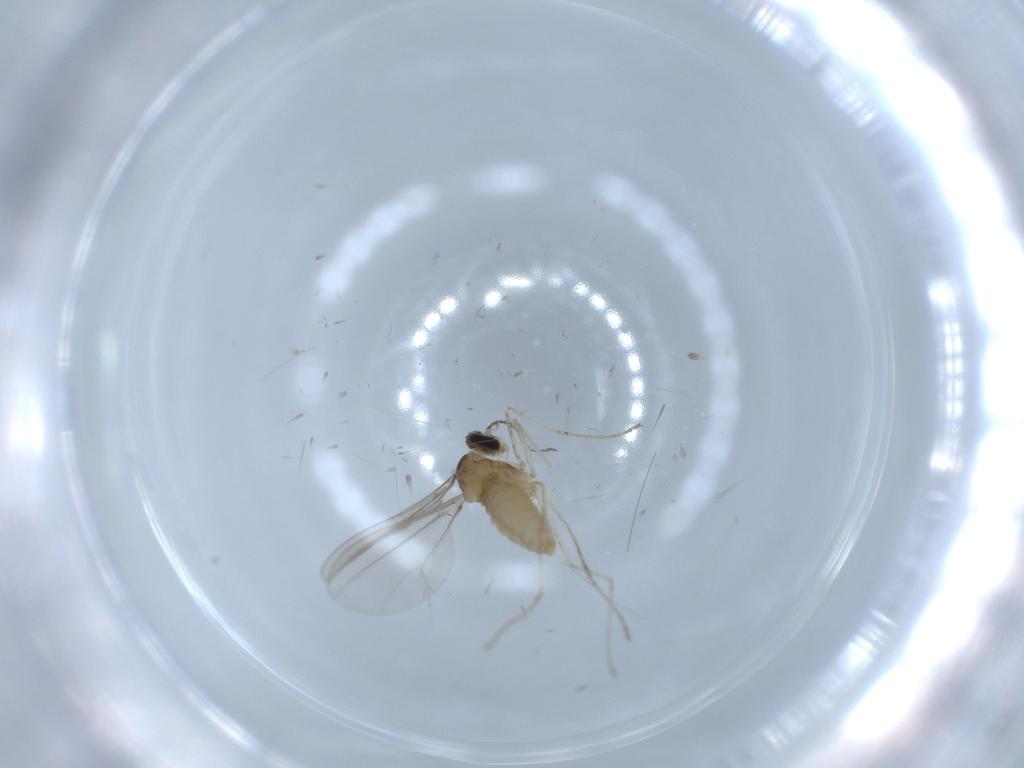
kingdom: Animalia
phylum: Arthropoda
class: Insecta
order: Diptera
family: Cecidomyiidae
